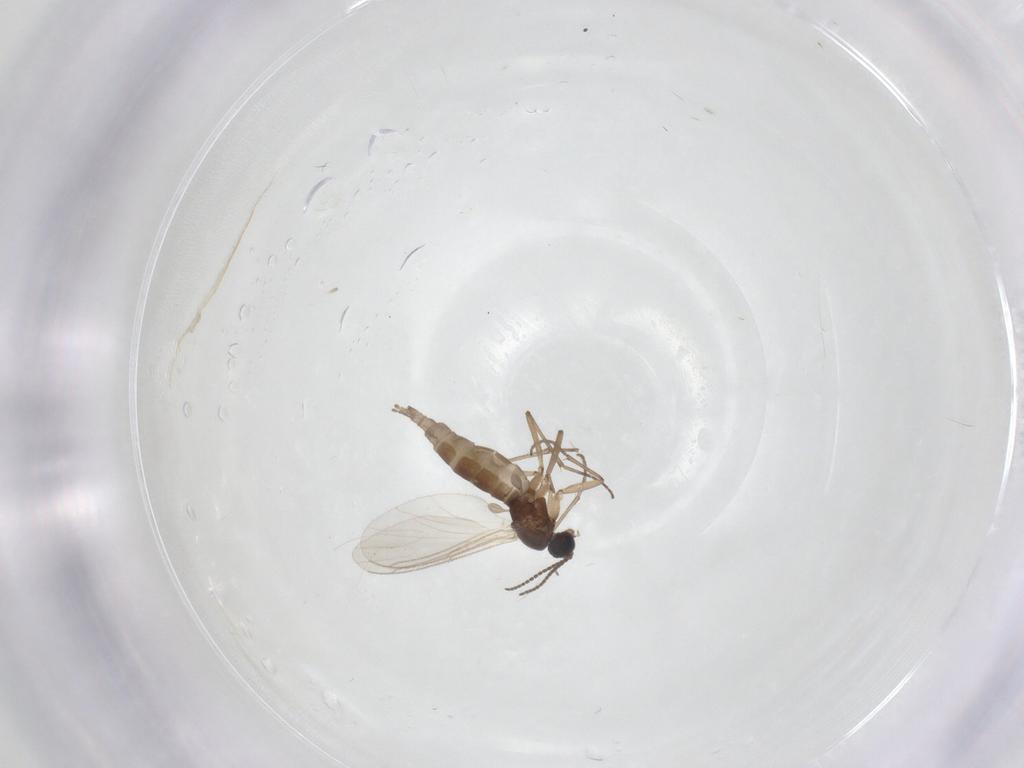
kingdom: Animalia
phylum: Arthropoda
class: Insecta
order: Diptera
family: Sciaridae
